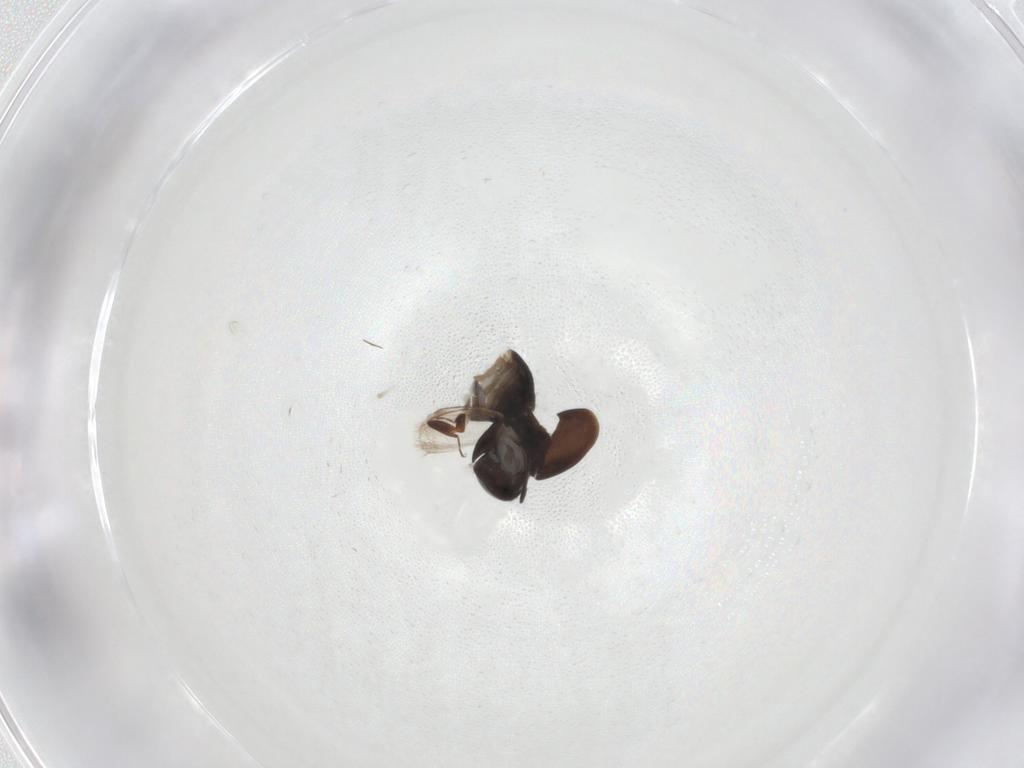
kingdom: Animalia
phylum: Arthropoda
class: Insecta
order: Coleoptera
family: Corylophidae
